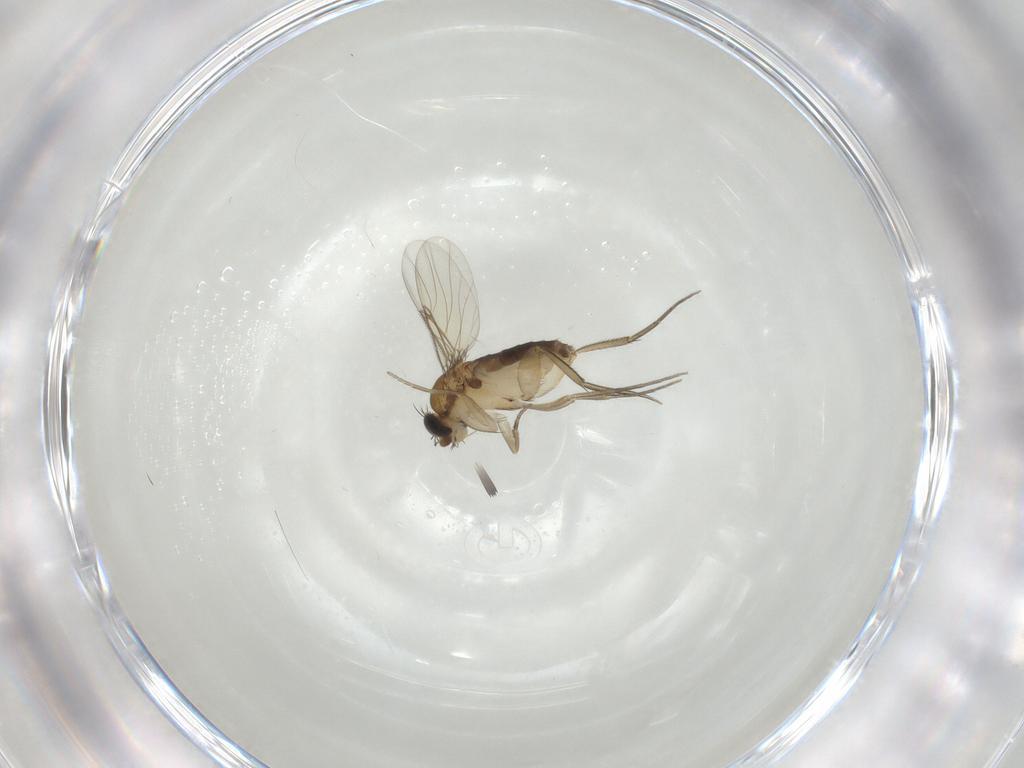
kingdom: Animalia
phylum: Arthropoda
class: Insecta
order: Diptera
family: Phoridae
